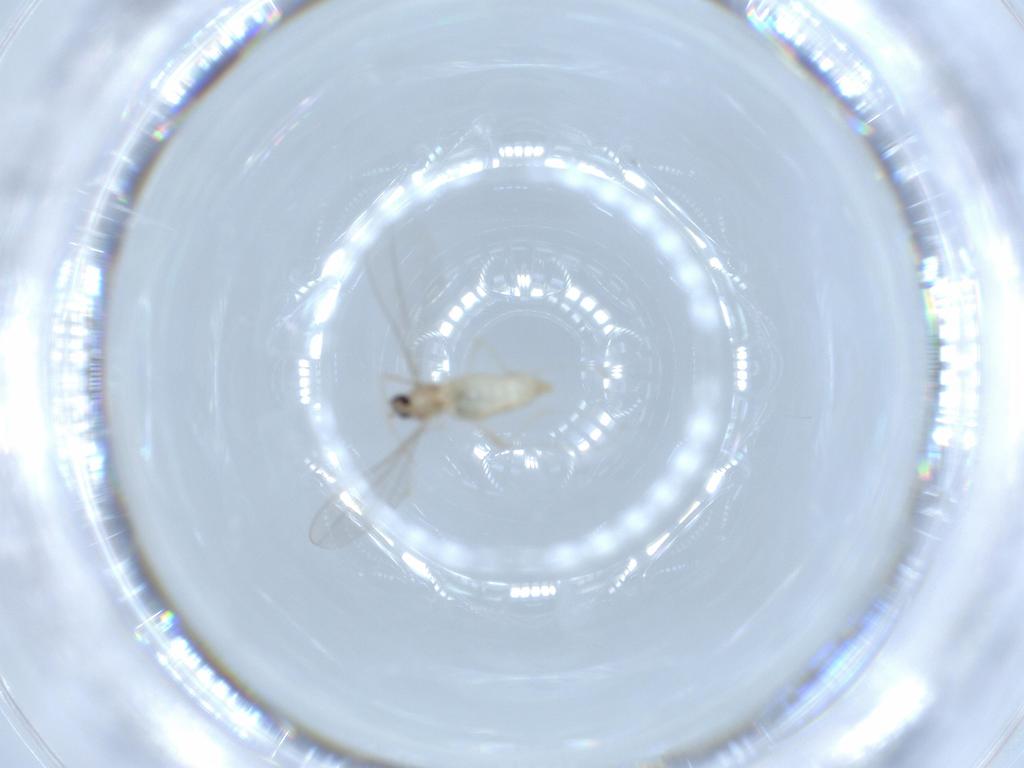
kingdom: Animalia
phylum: Arthropoda
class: Insecta
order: Diptera
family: Cecidomyiidae
